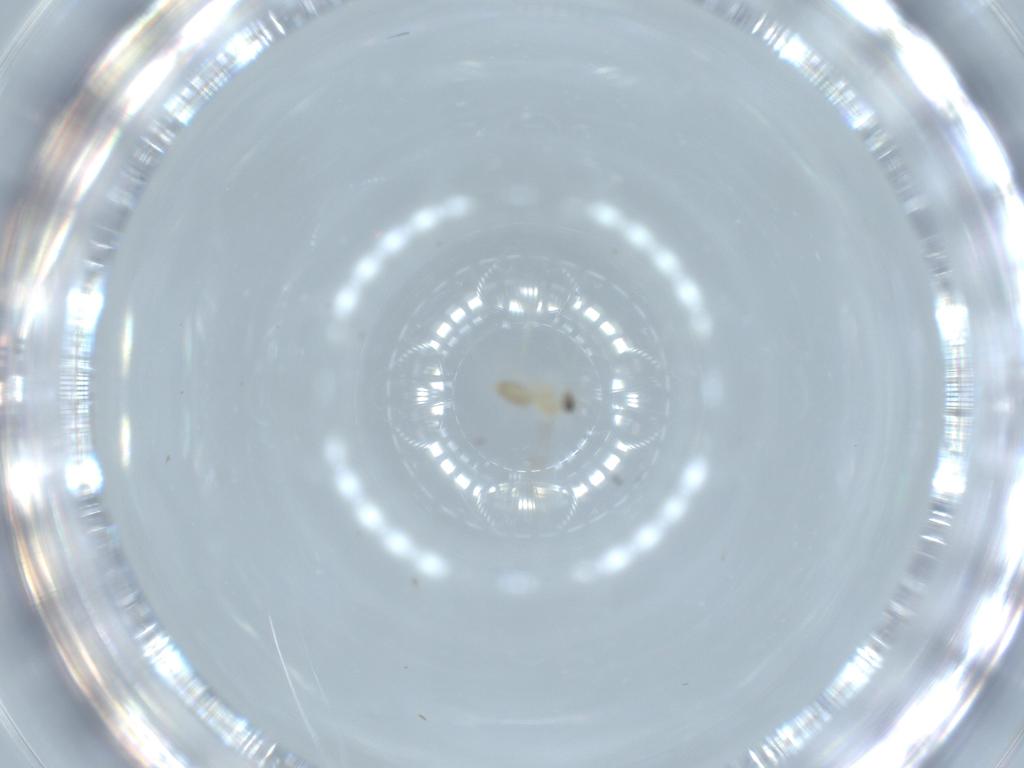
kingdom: Animalia
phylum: Arthropoda
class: Insecta
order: Diptera
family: Cecidomyiidae
